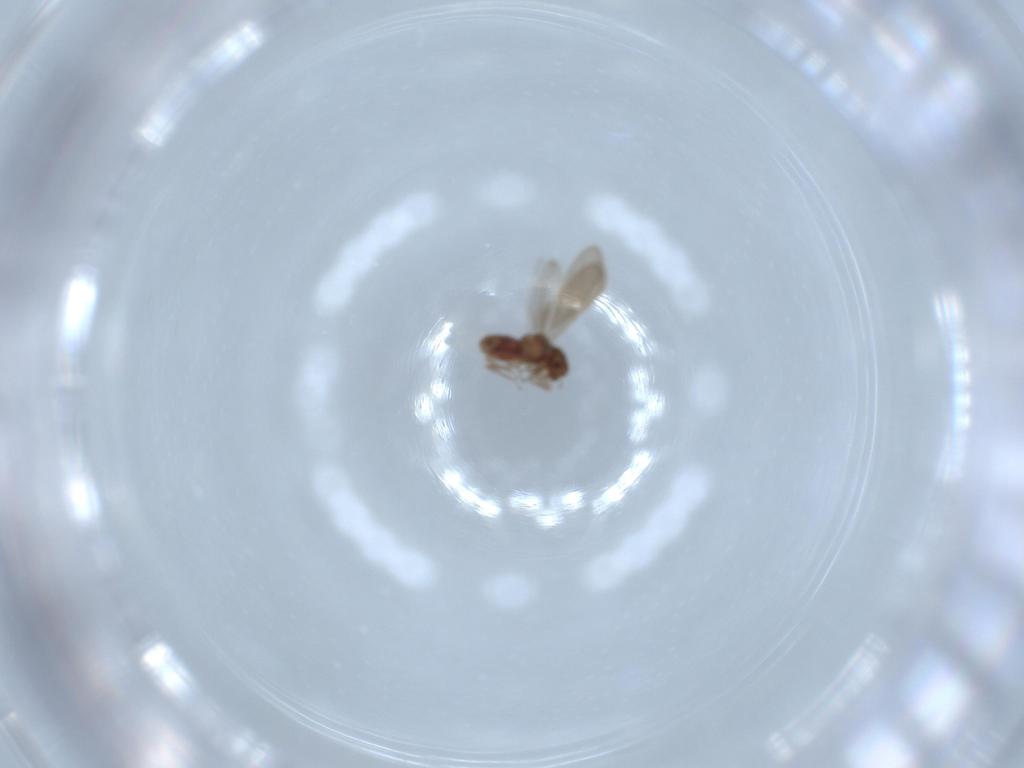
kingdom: Animalia
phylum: Arthropoda
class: Insecta
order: Psocodea
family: Archipsocidae
